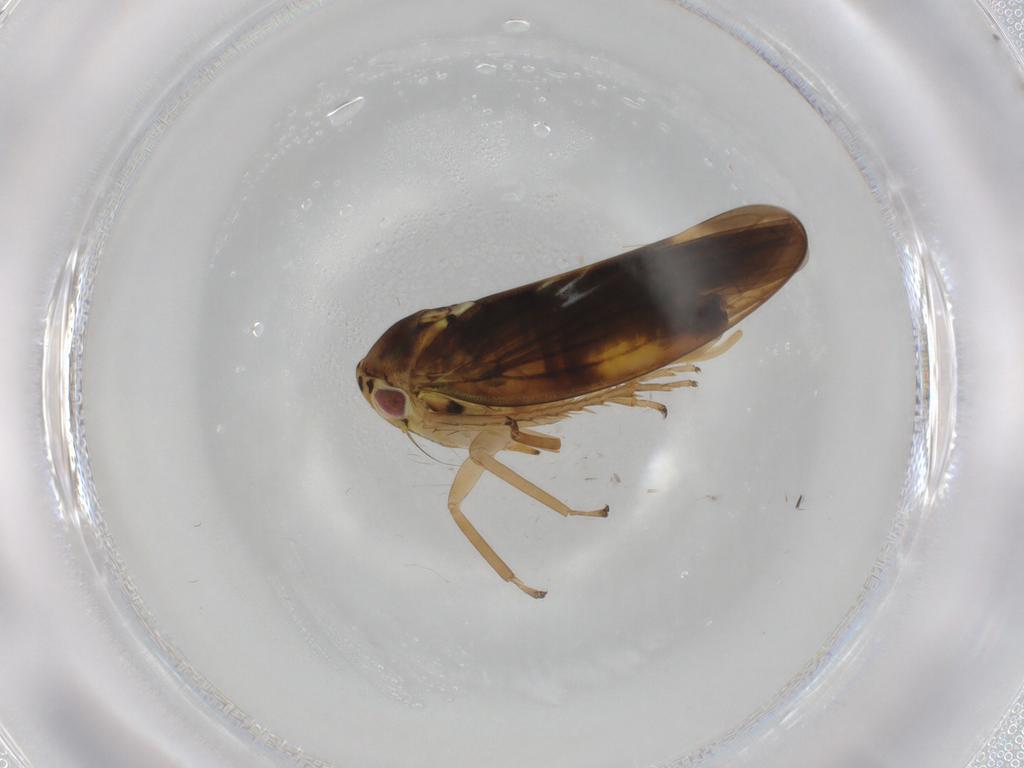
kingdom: Animalia
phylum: Arthropoda
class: Insecta
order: Hemiptera
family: Cicadellidae
